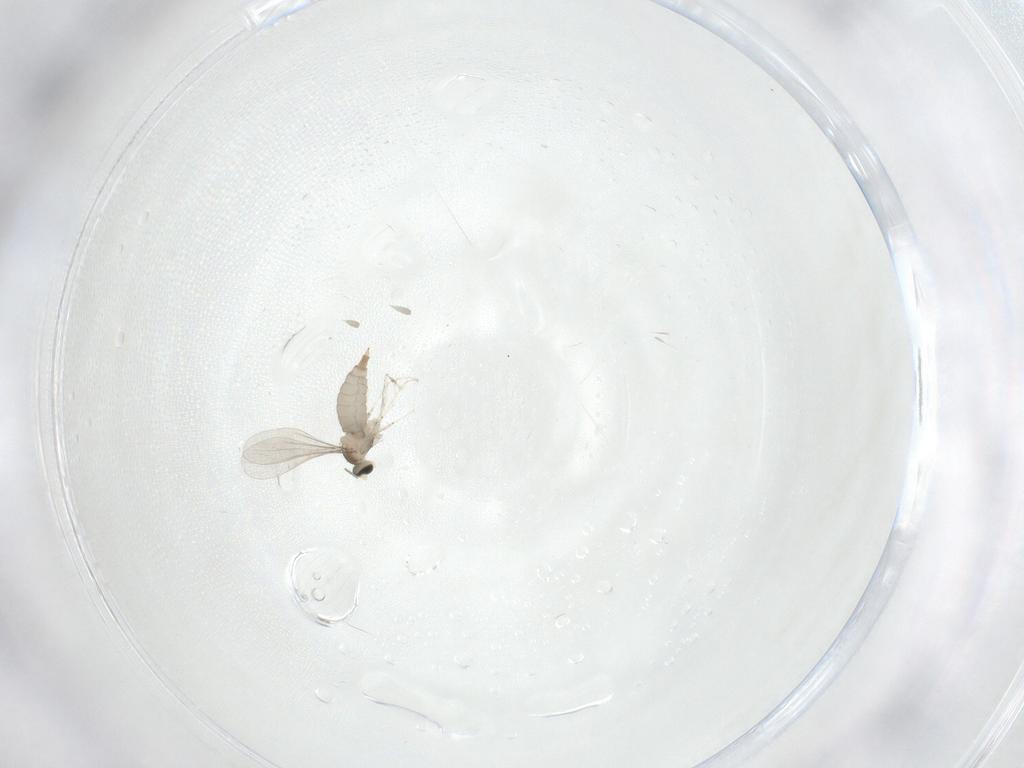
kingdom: Animalia
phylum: Arthropoda
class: Insecta
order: Diptera
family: Cecidomyiidae
